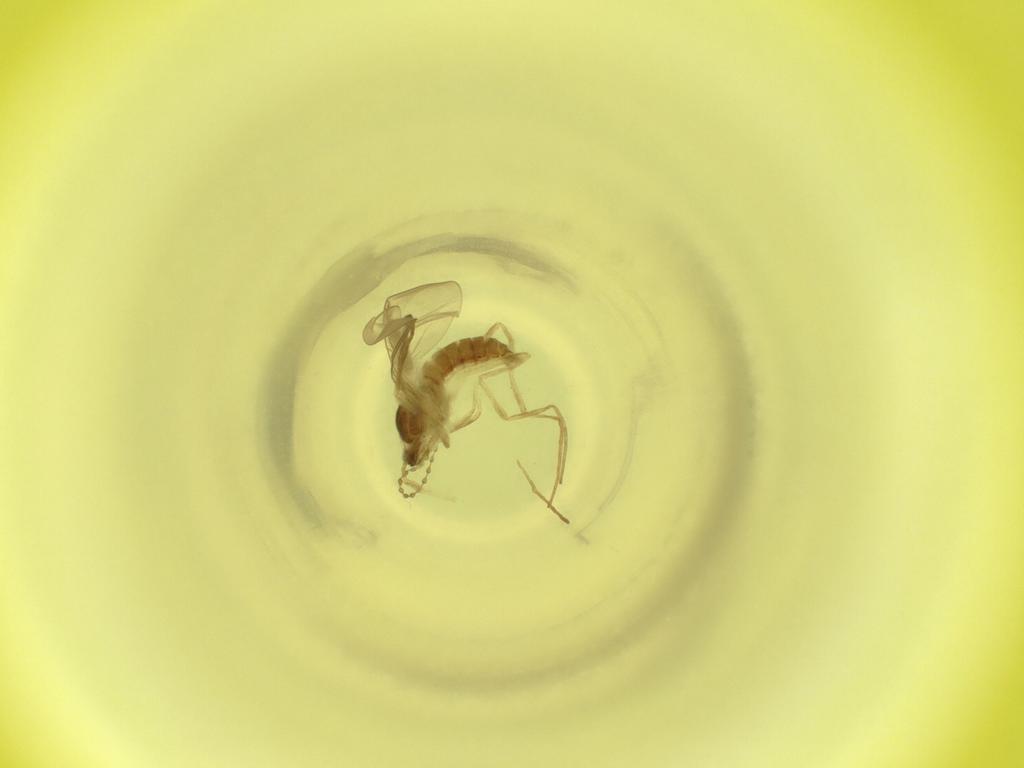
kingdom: Animalia
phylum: Arthropoda
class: Insecta
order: Diptera
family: Cecidomyiidae
